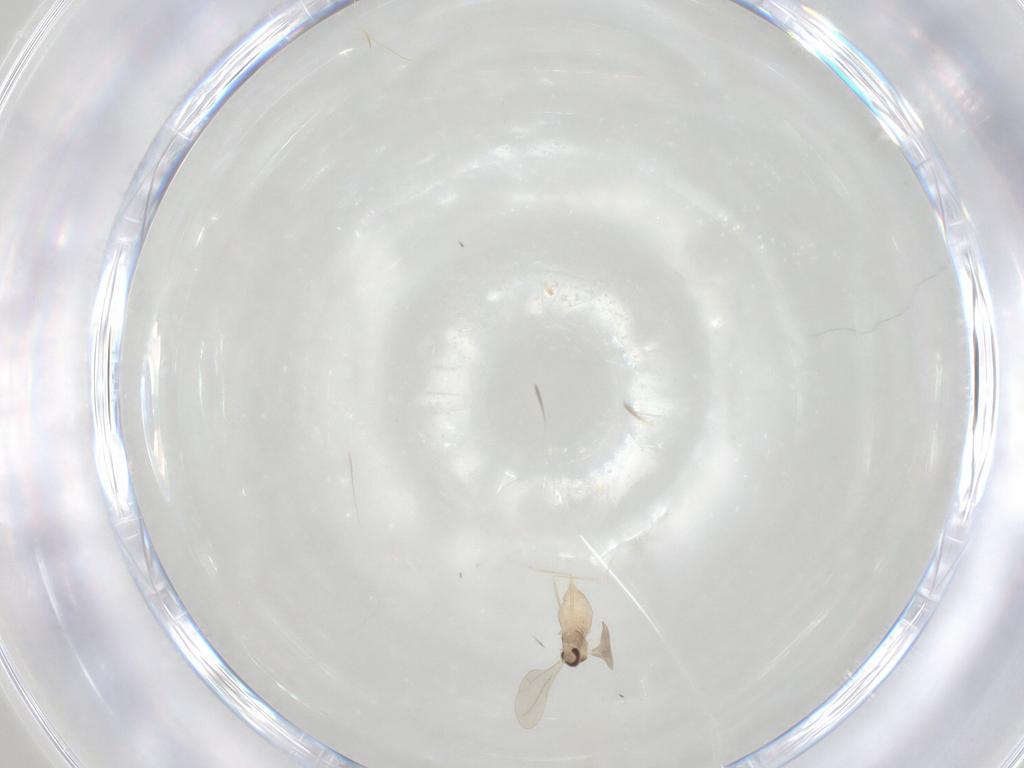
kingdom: Animalia
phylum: Arthropoda
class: Insecta
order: Diptera
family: Cecidomyiidae
